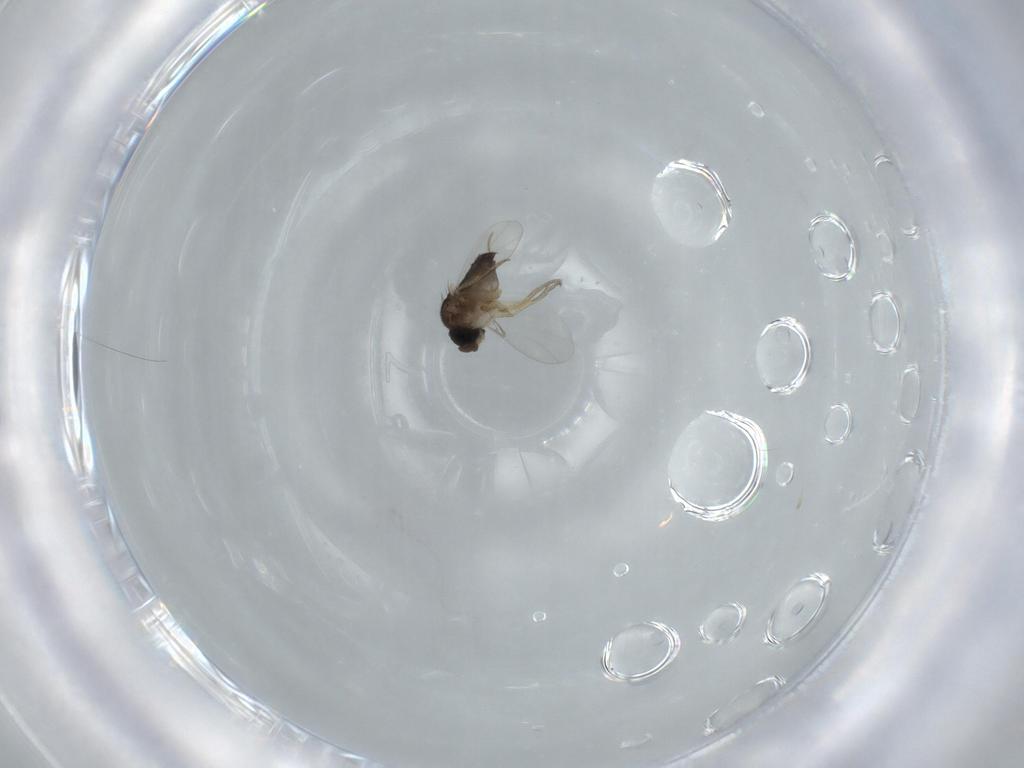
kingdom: Animalia
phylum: Arthropoda
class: Insecta
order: Diptera
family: Phoridae
